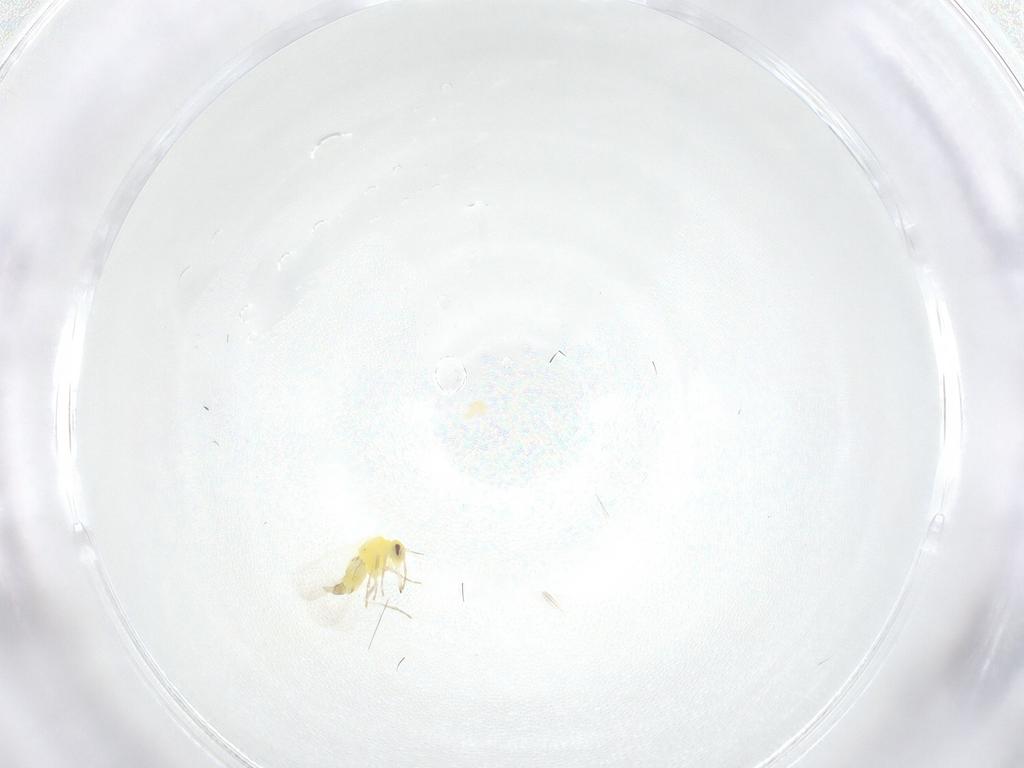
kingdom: Animalia
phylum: Arthropoda
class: Insecta
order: Hemiptera
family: Aleyrodidae
